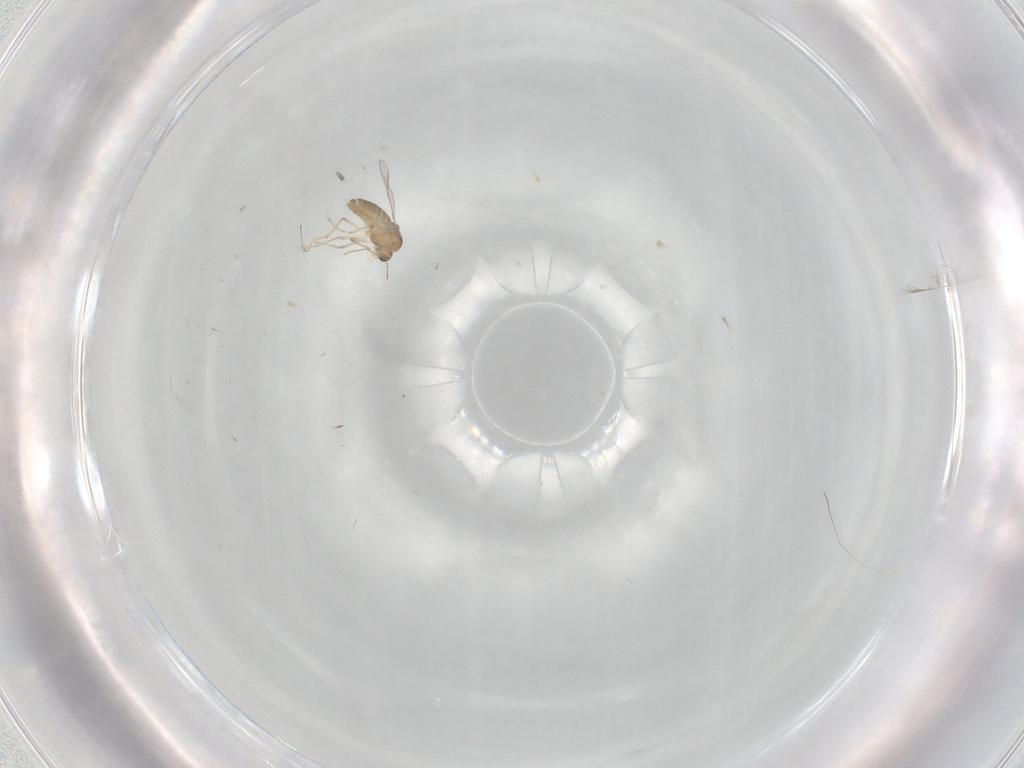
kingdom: Animalia
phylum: Arthropoda
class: Insecta
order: Diptera
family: Chironomidae
